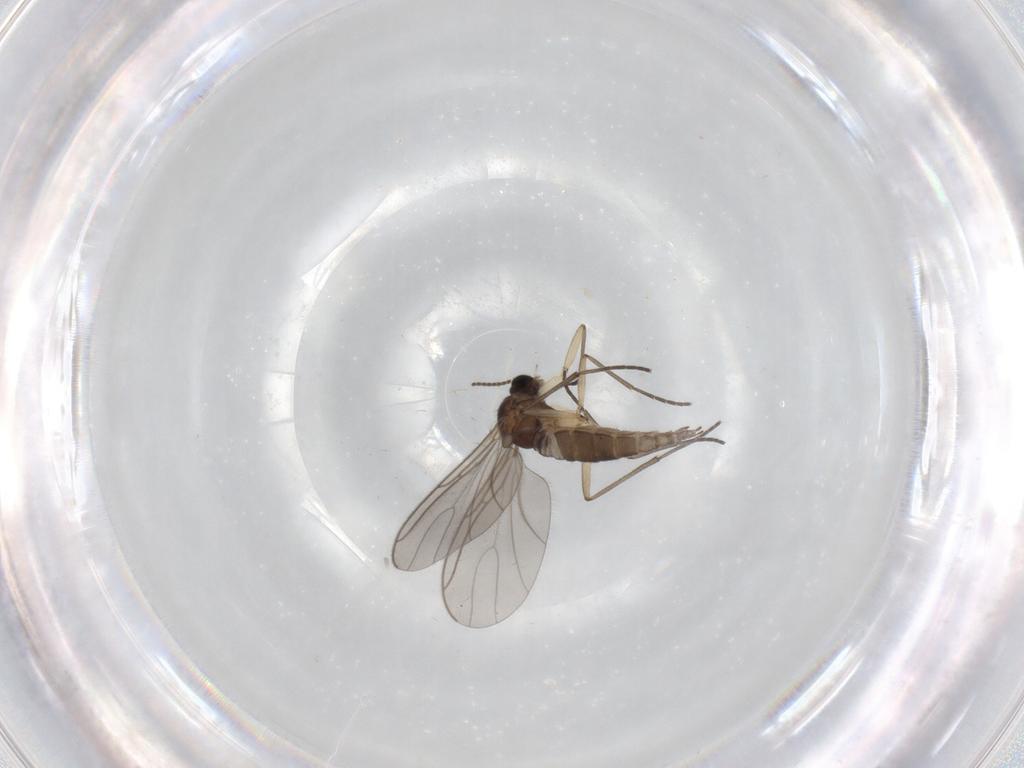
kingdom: Animalia
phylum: Arthropoda
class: Insecta
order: Diptera
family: Sciaridae
